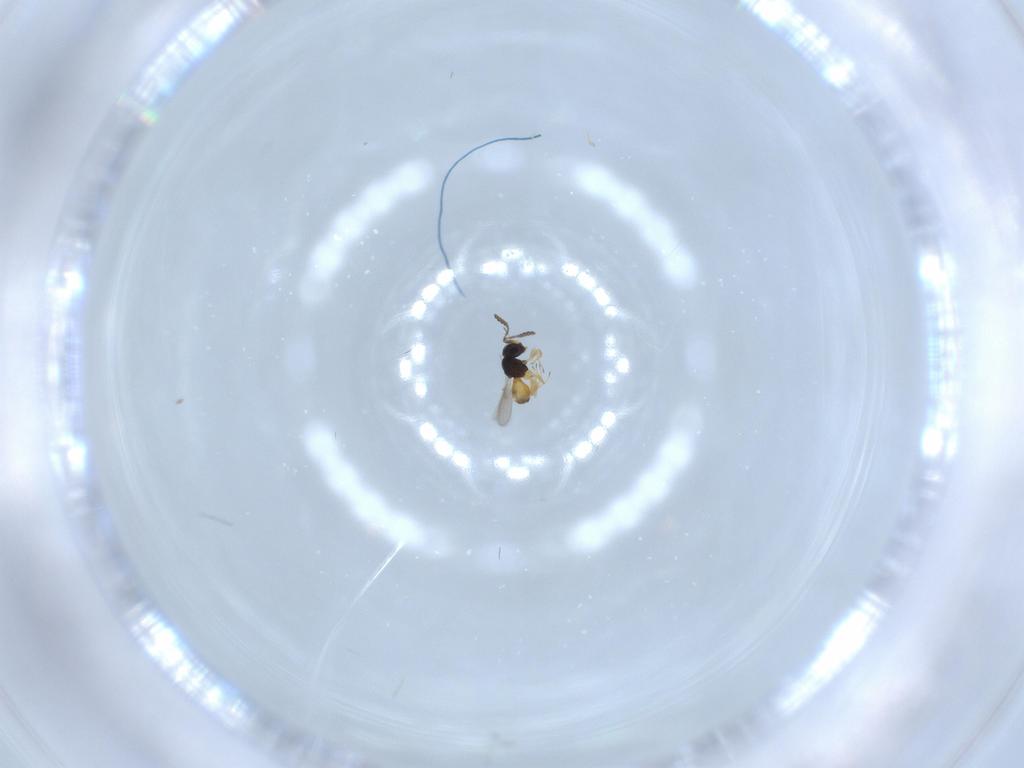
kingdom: Animalia
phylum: Arthropoda
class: Insecta
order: Hymenoptera
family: Scelionidae
